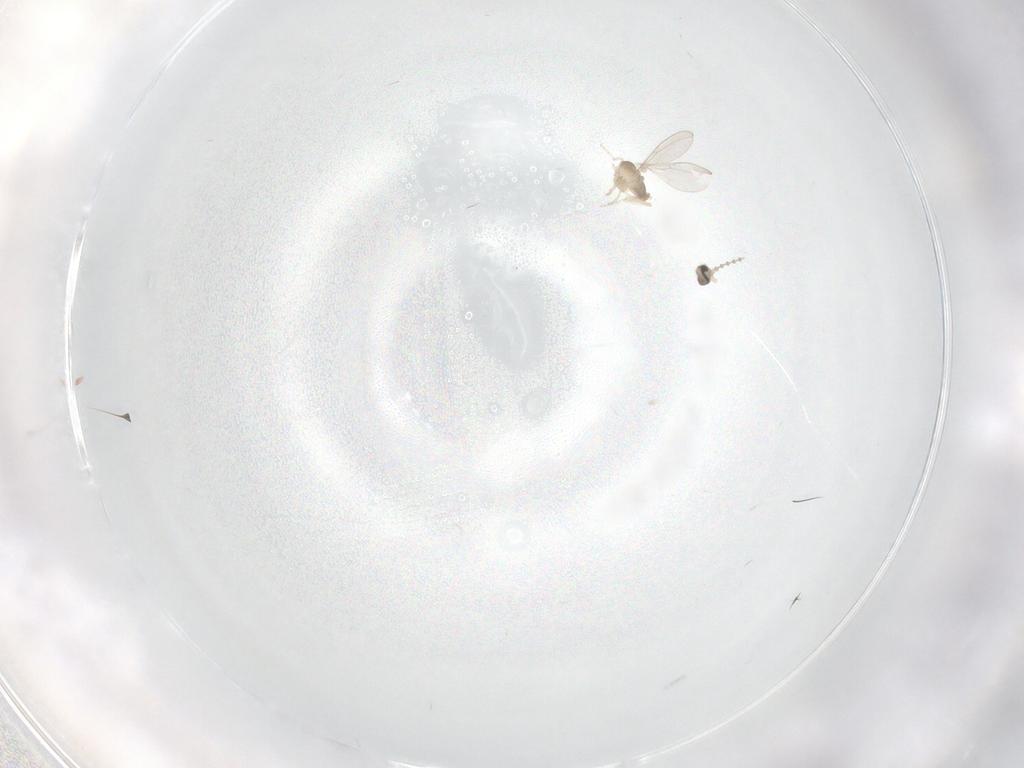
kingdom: Animalia
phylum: Arthropoda
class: Insecta
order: Diptera
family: Cecidomyiidae
